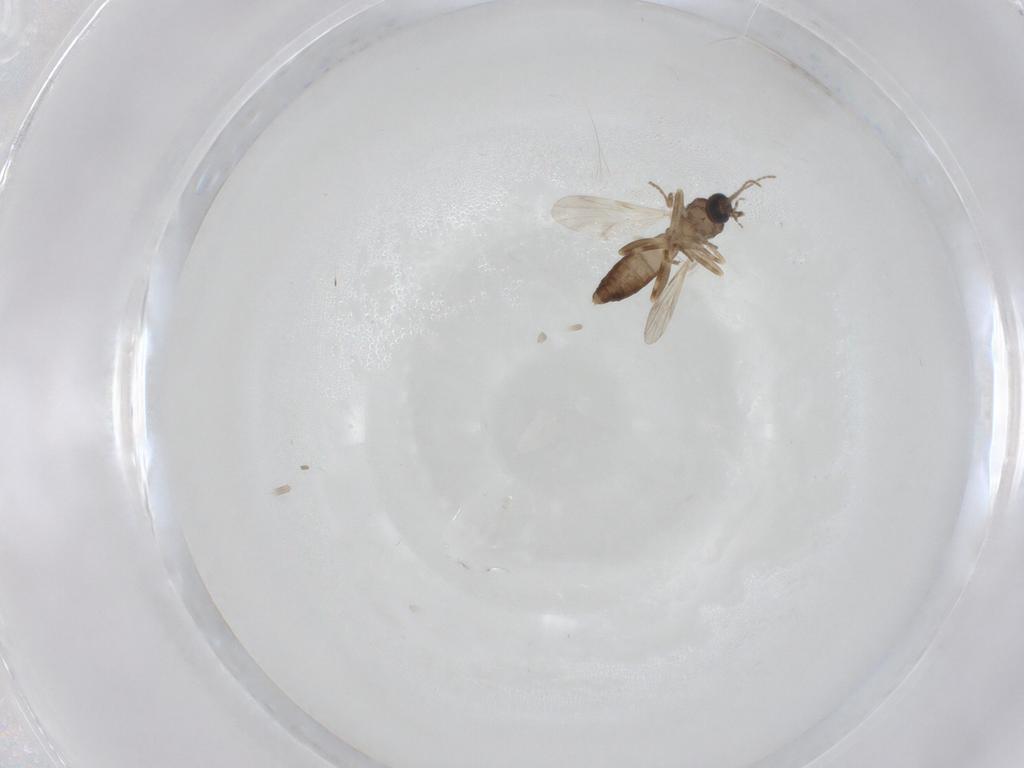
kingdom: Animalia
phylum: Arthropoda
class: Insecta
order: Diptera
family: Ceratopogonidae
